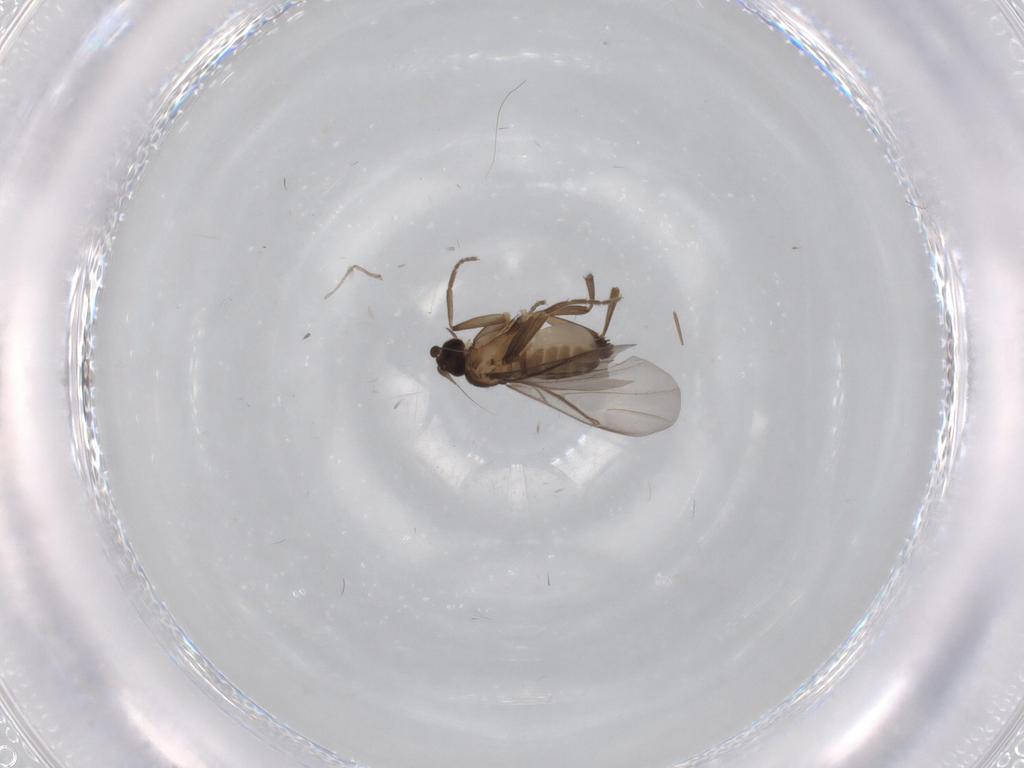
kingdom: Animalia
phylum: Arthropoda
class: Insecta
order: Diptera
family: Phoridae
